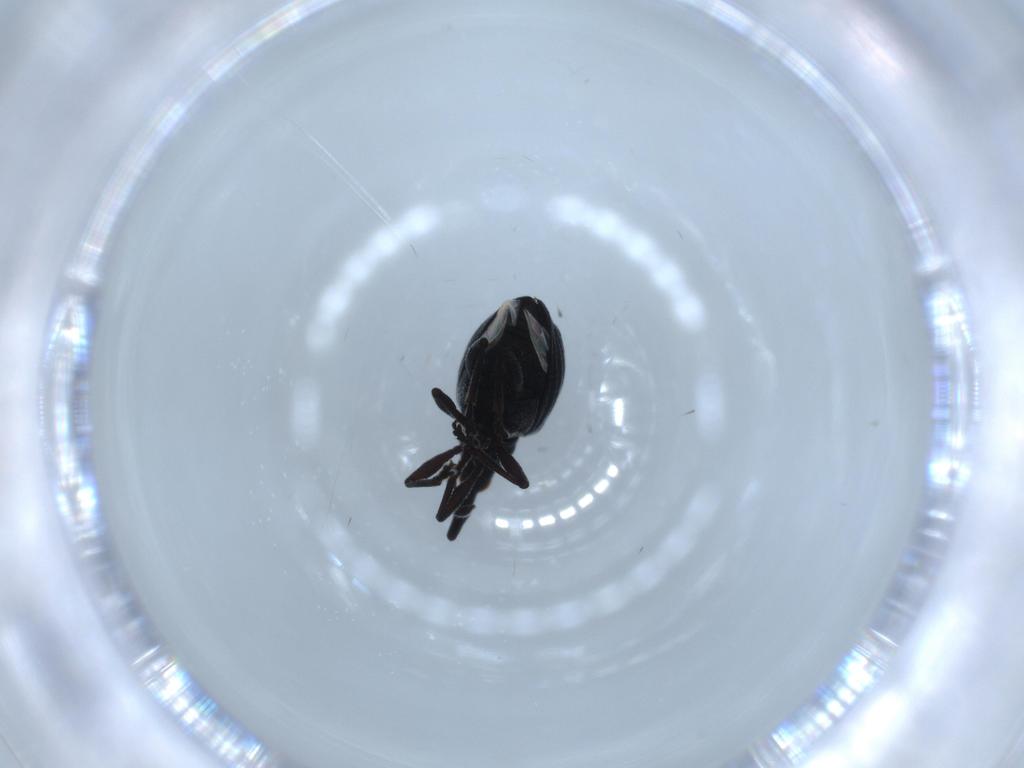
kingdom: Animalia
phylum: Arthropoda
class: Insecta
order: Coleoptera
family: Brentidae
